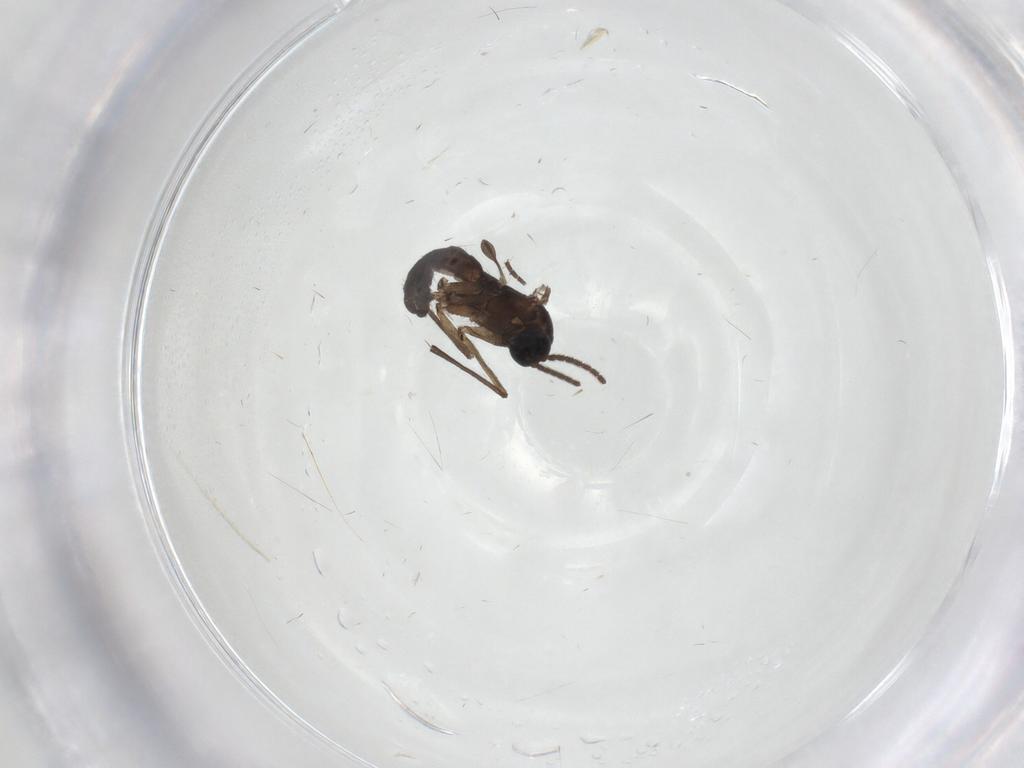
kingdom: Animalia
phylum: Arthropoda
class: Insecta
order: Diptera
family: Sciaridae
